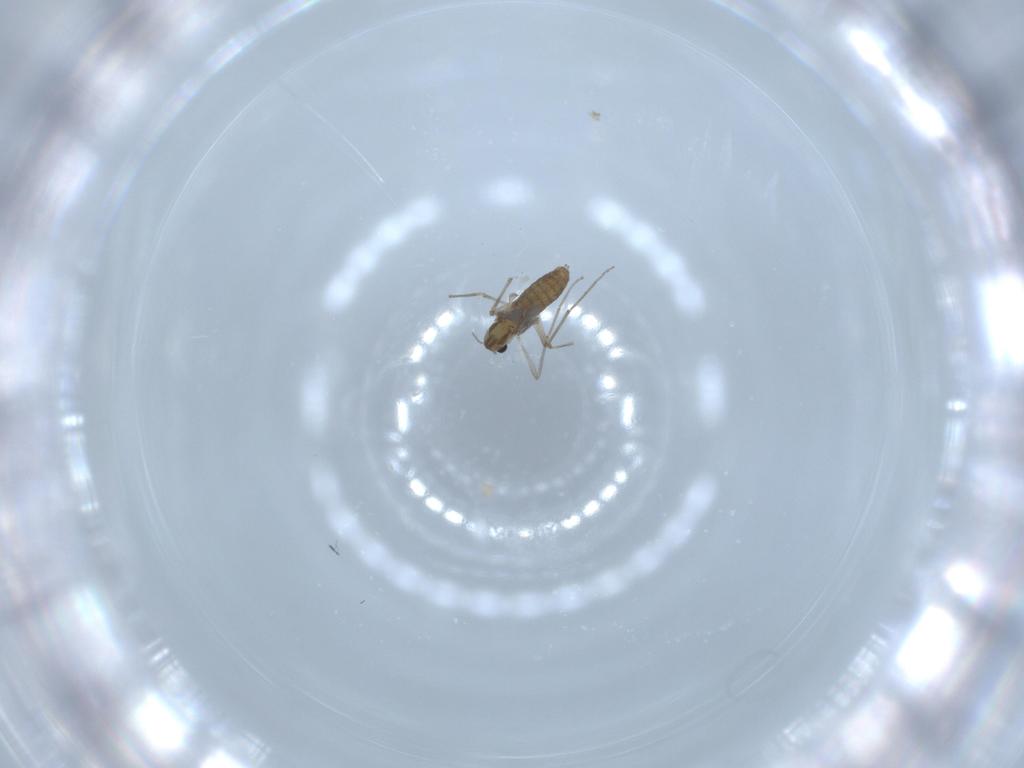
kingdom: Animalia
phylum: Arthropoda
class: Insecta
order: Diptera
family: Chironomidae
